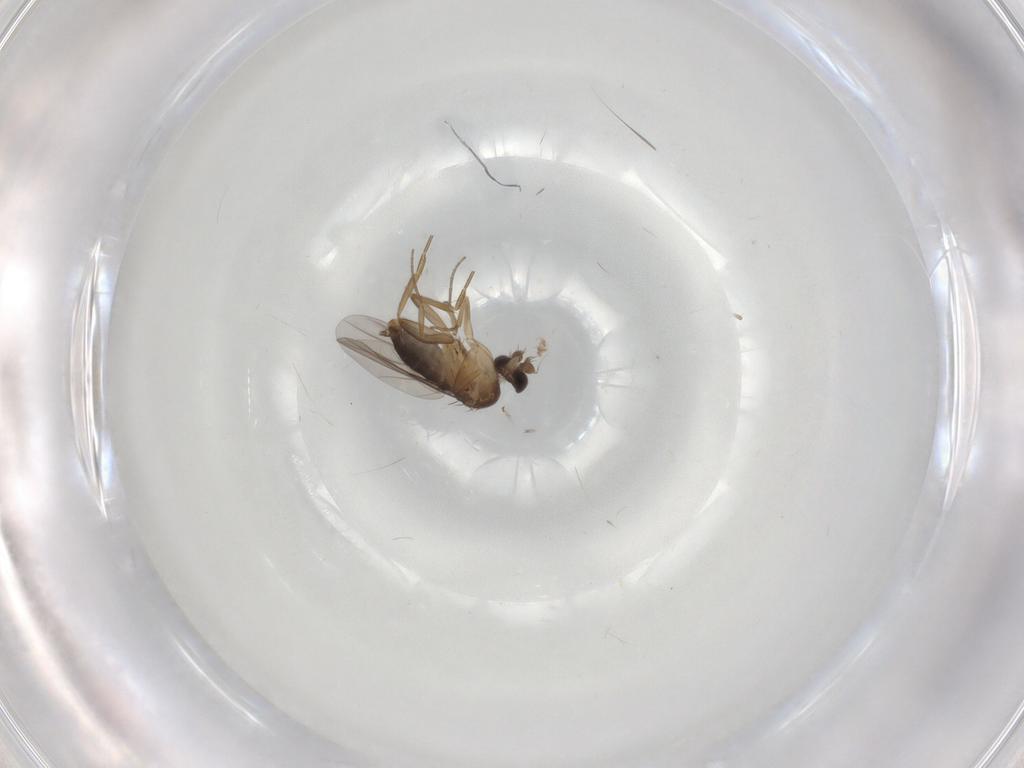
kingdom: Animalia
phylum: Arthropoda
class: Insecta
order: Diptera
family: Phoridae
